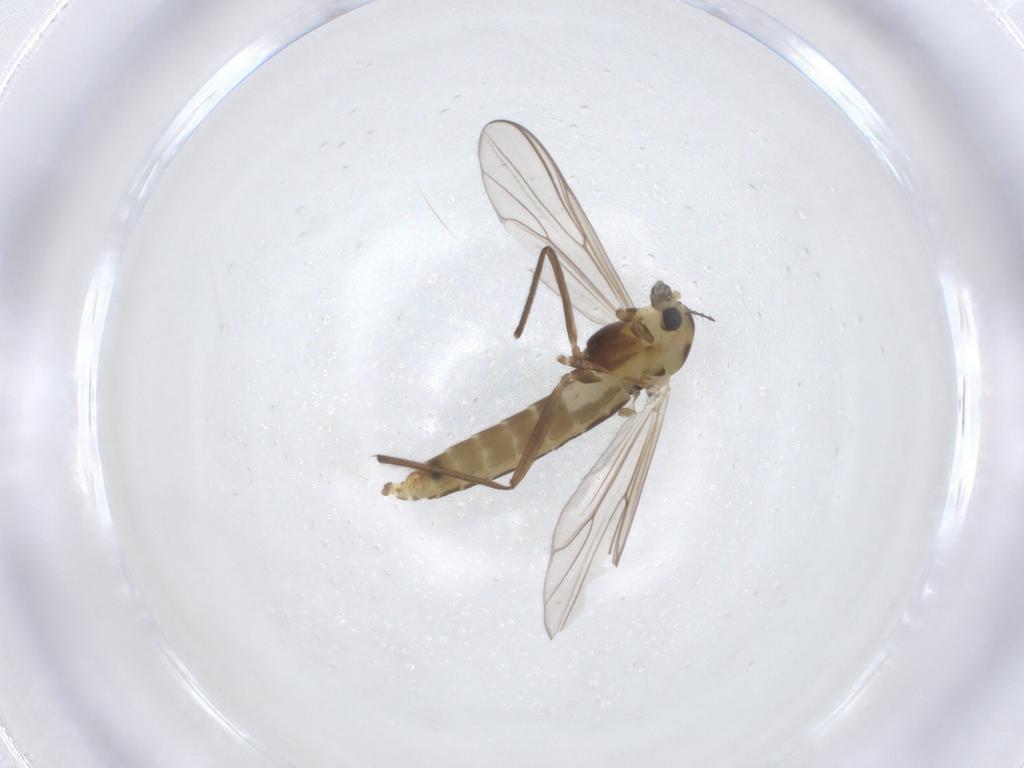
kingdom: Animalia
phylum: Arthropoda
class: Insecta
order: Diptera
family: Chironomidae
